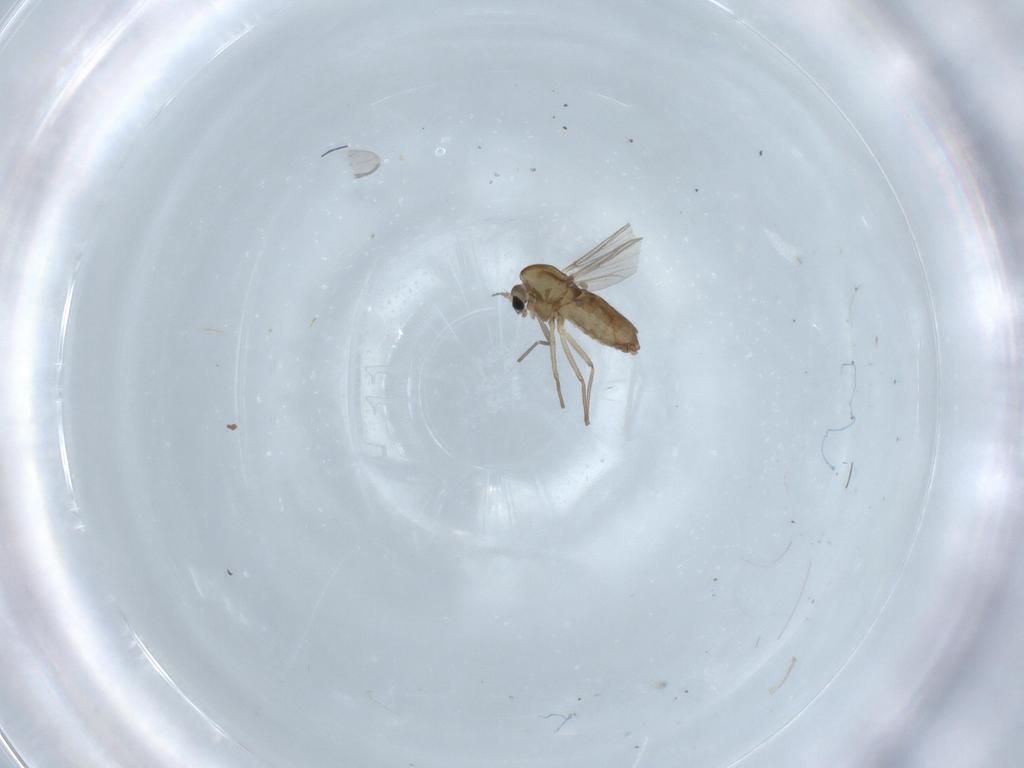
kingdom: Animalia
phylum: Arthropoda
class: Insecta
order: Diptera
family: Chironomidae
